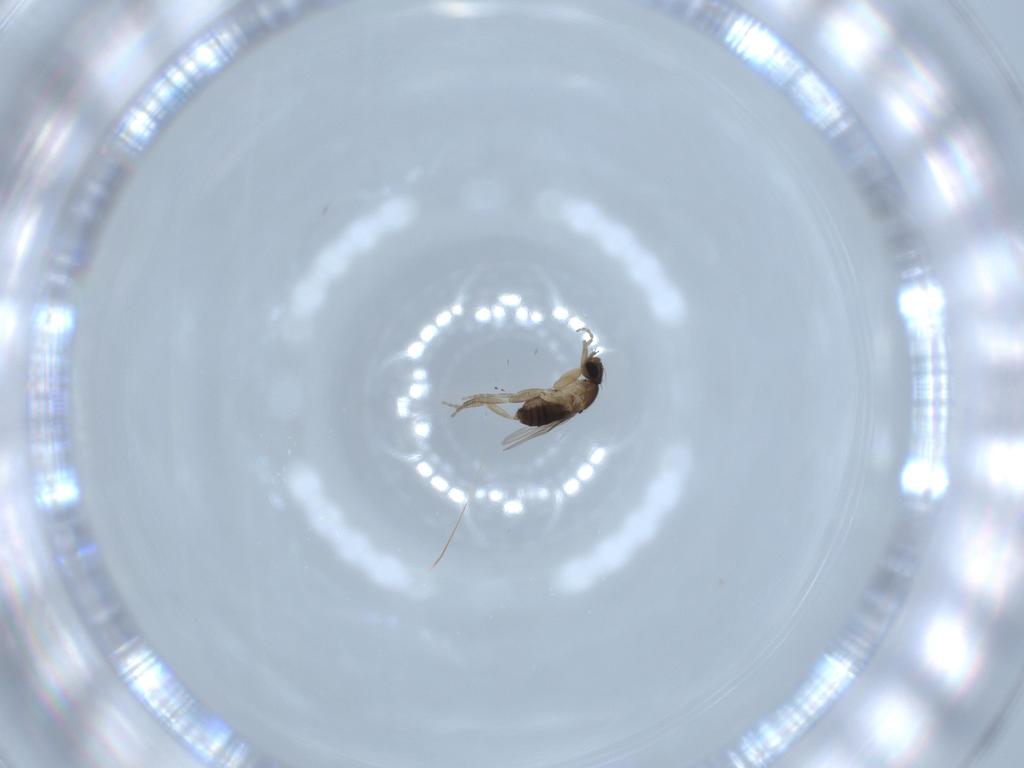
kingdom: Animalia
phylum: Arthropoda
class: Insecta
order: Diptera
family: Phoridae
